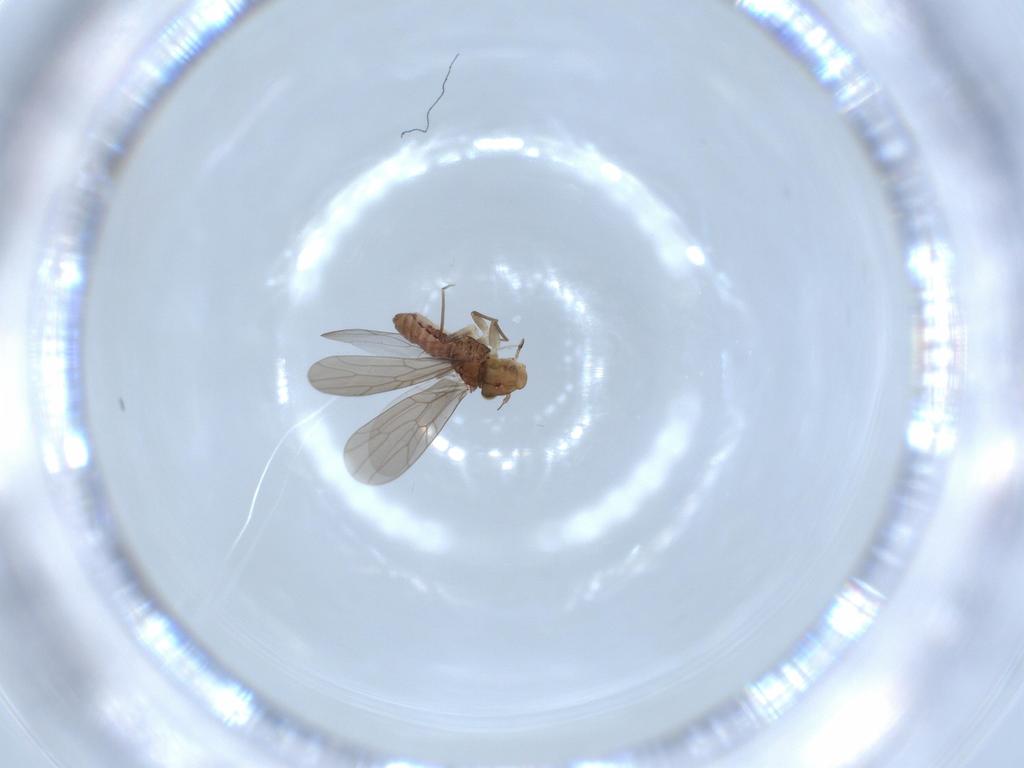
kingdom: Animalia
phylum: Arthropoda
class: Insecta
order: Psocodea
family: Lepidopsocidae
